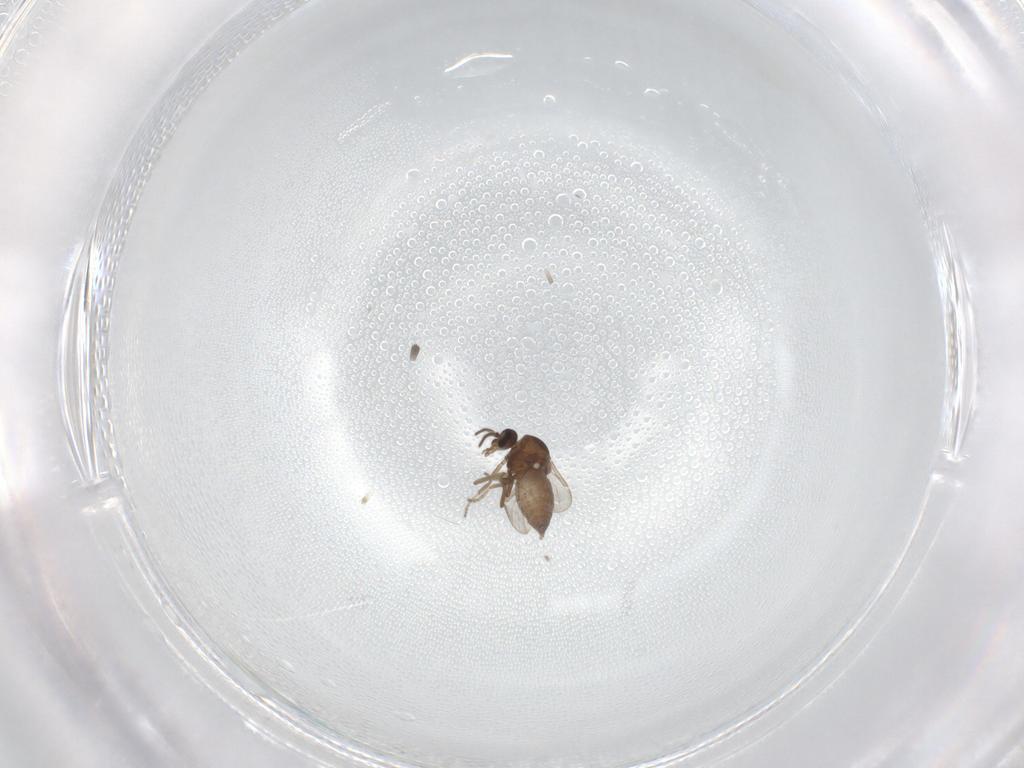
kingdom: Animalia
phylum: Arthropoda
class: Insecta
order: Diptera
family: Ceratopogonidae
